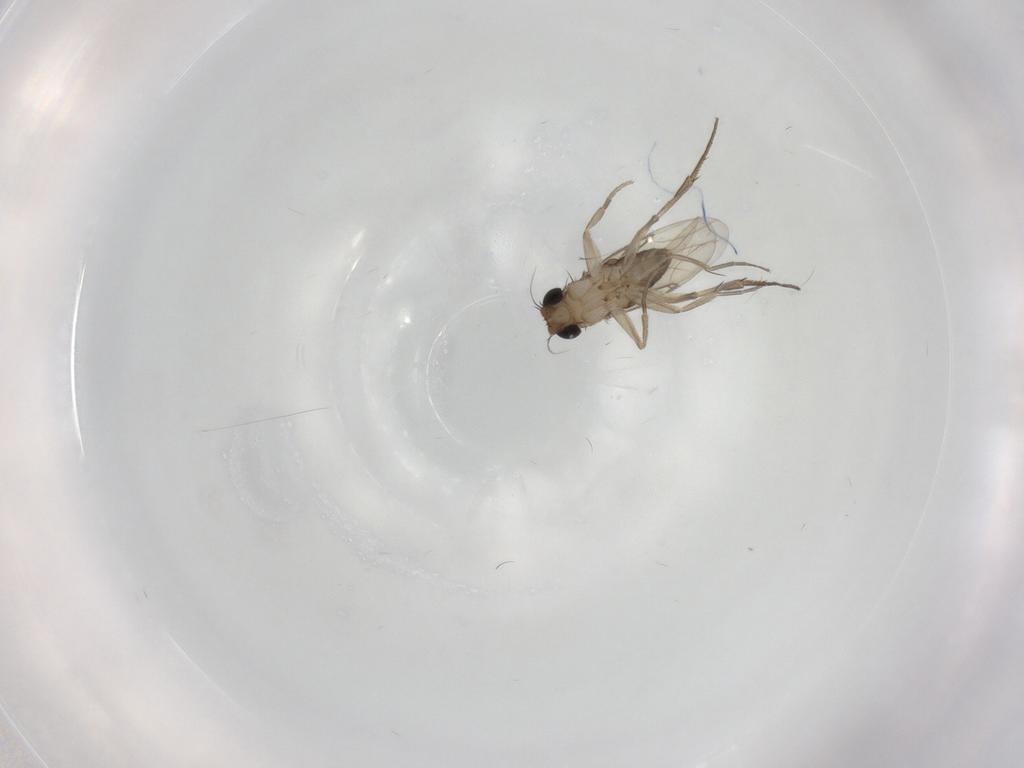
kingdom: Animalia
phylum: Arthropoda
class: Insecta
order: Diptera
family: Phoridae
